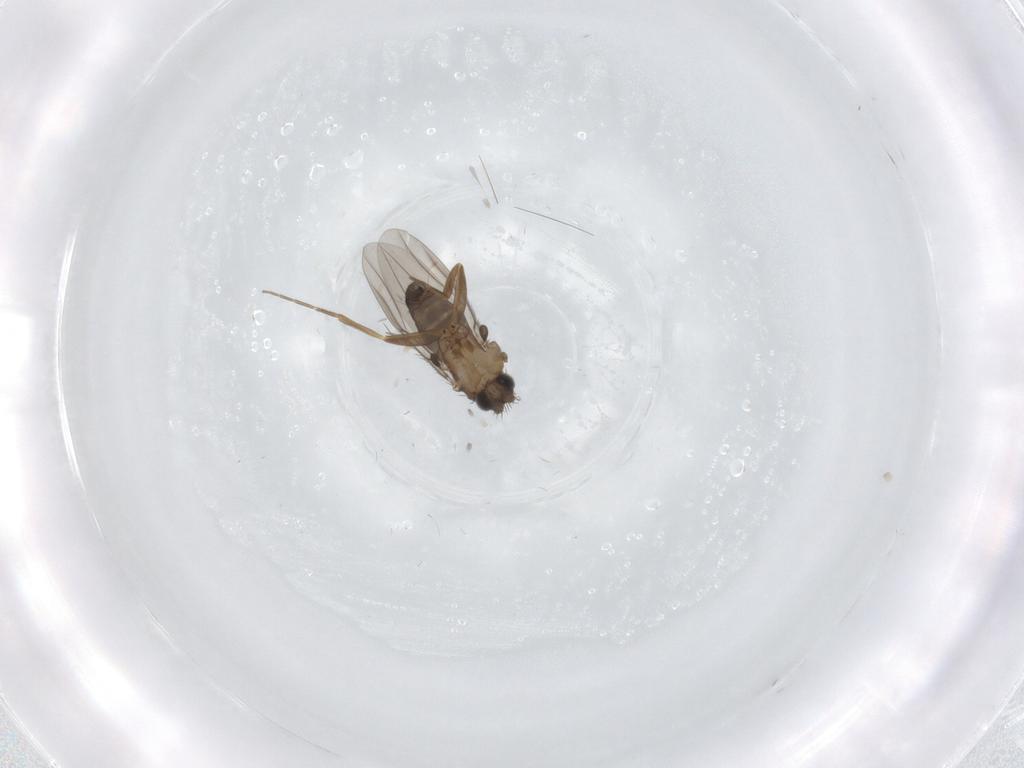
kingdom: Animalia
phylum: Arthropoda
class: Insecta
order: Diptera
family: Cecidomyiidae
